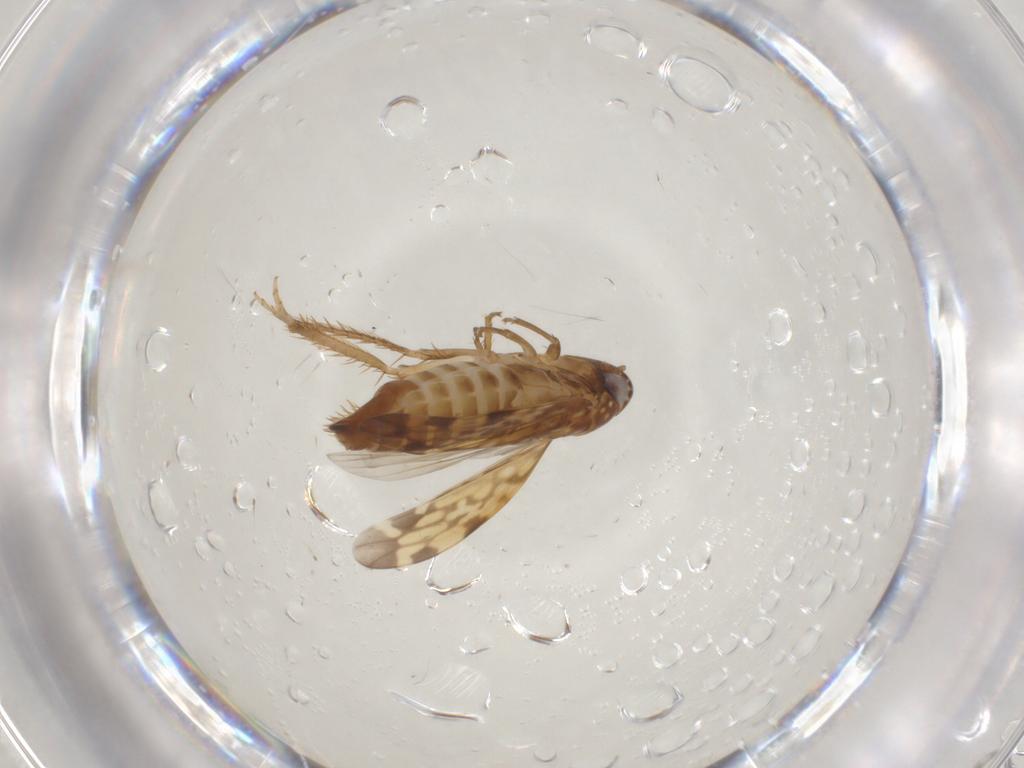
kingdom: Animalia
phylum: Arthropoda
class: Insecta
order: Hemiptera
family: Cicadellidae
